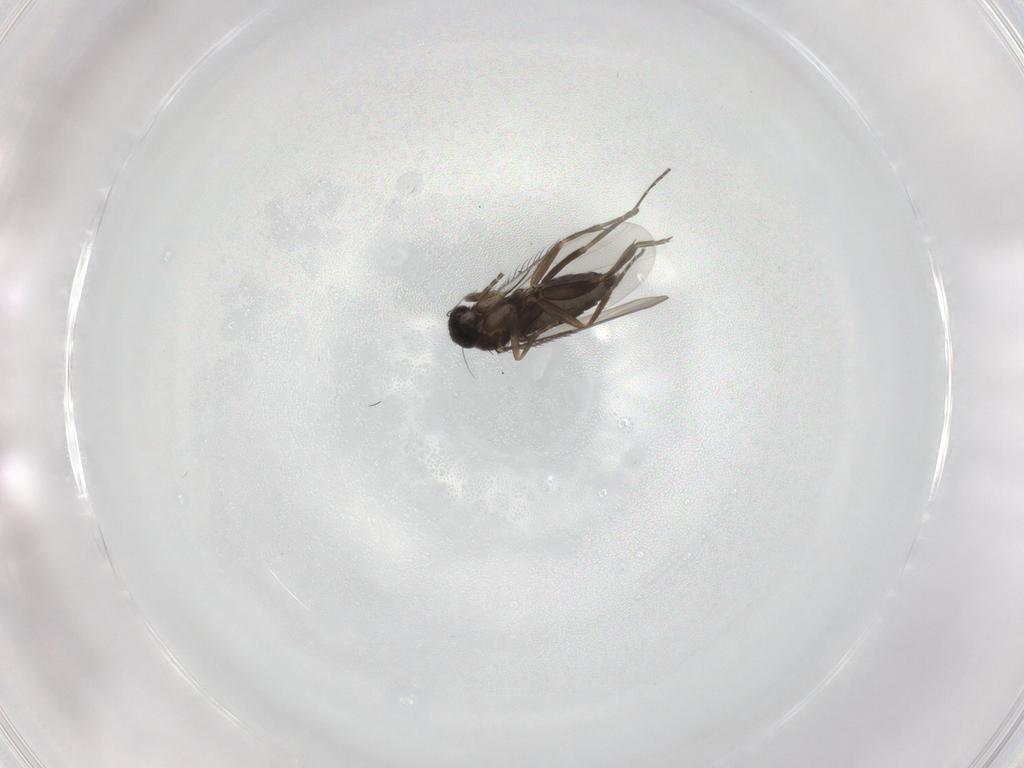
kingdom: Animalia
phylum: Arthropoda
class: Insecta
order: Diptera
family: Phoridae
